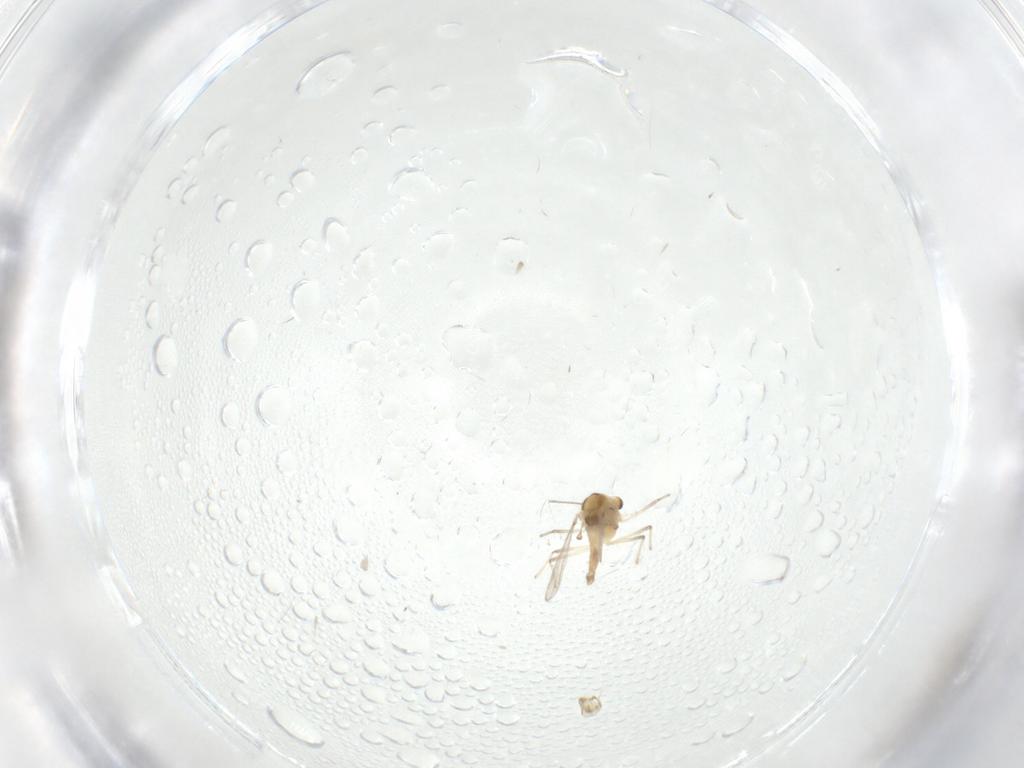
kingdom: Animalia
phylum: Arthropoda
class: Insecta
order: Diptera
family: Chironomidae
